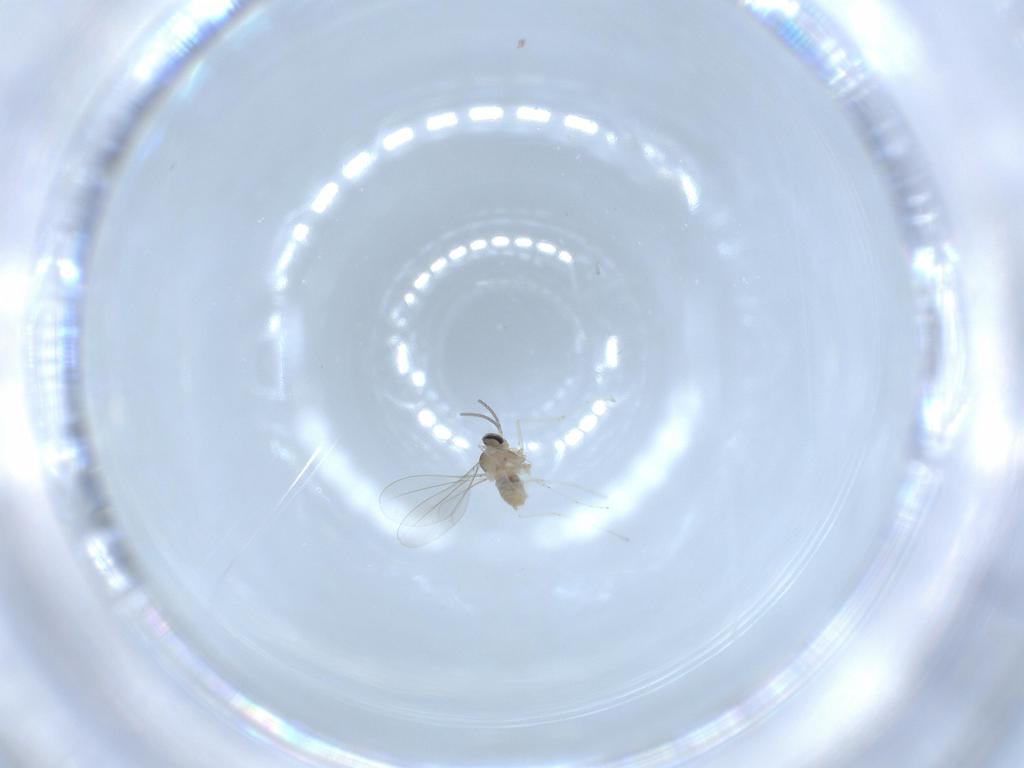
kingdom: Animalia
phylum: Arthropoda
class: Insecta
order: Diptera
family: Cecidomyiidae
